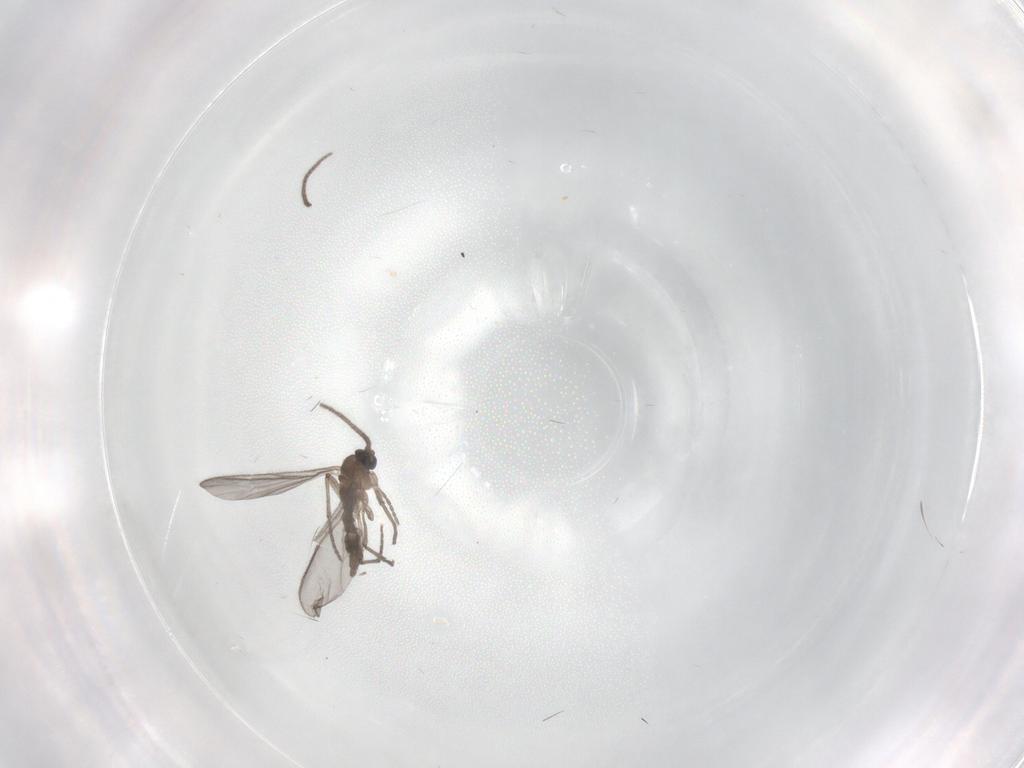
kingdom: Animalia
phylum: Arthropoda
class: Insecta
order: Diptera
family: Sciaridae
